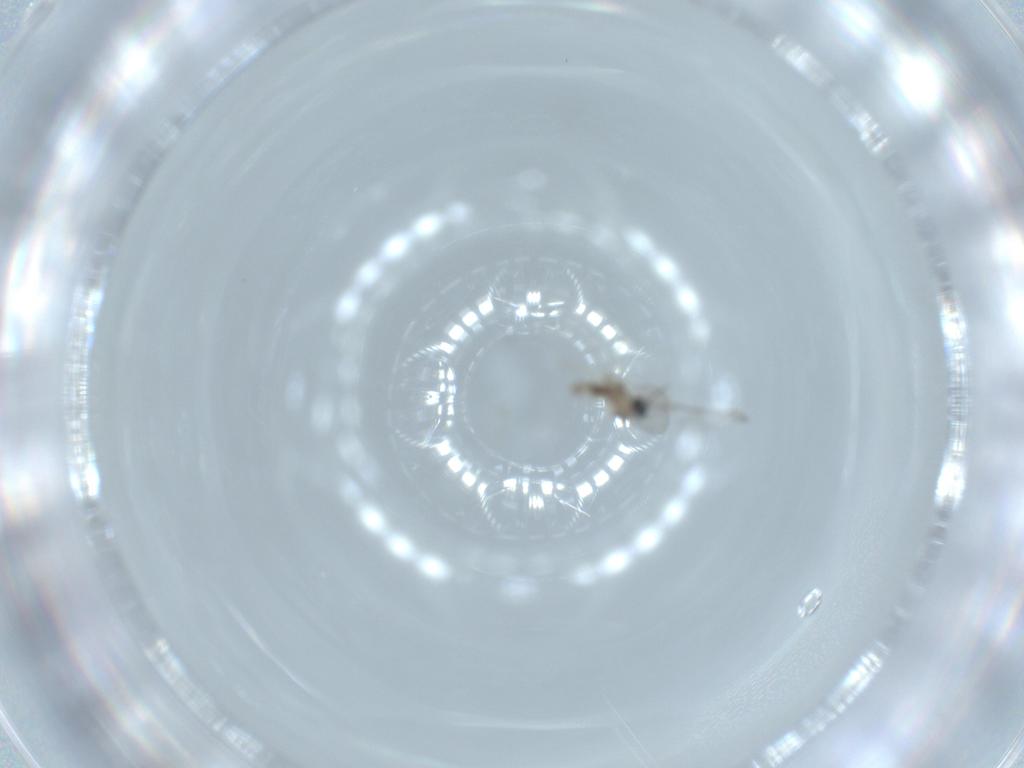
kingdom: Animalia
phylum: Arthropoda
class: Insecta
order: Diptera
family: Cecidomyiidae
